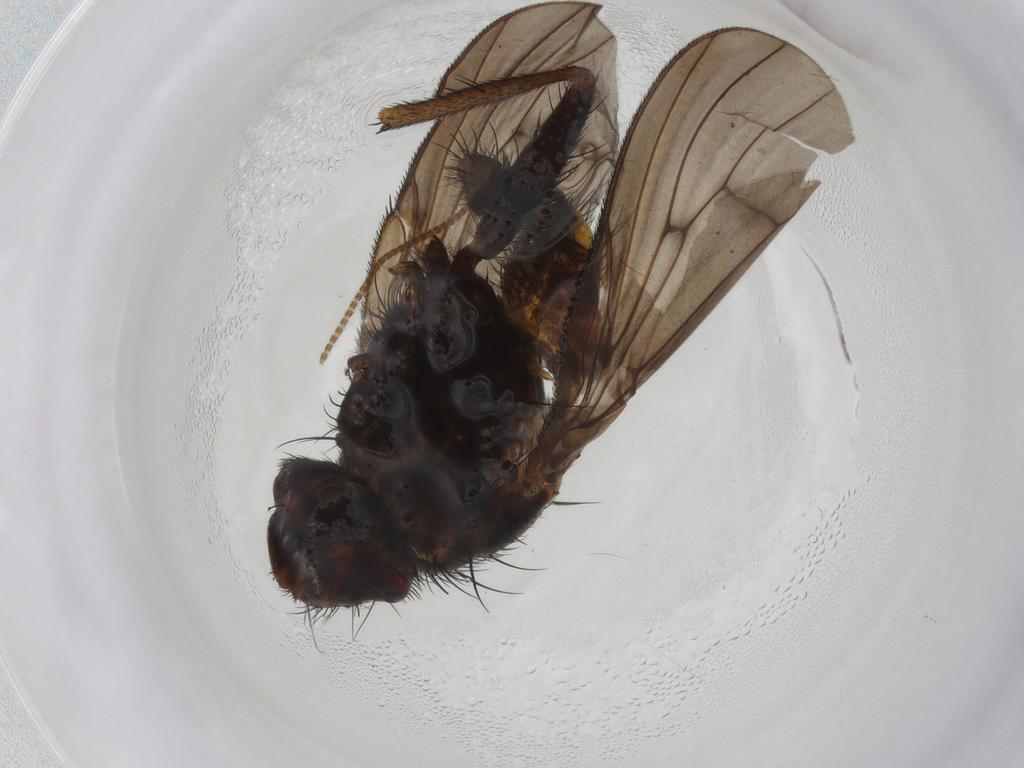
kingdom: Animalia
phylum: Arthropoda
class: Insecta
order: Diptera
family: Muscidae
